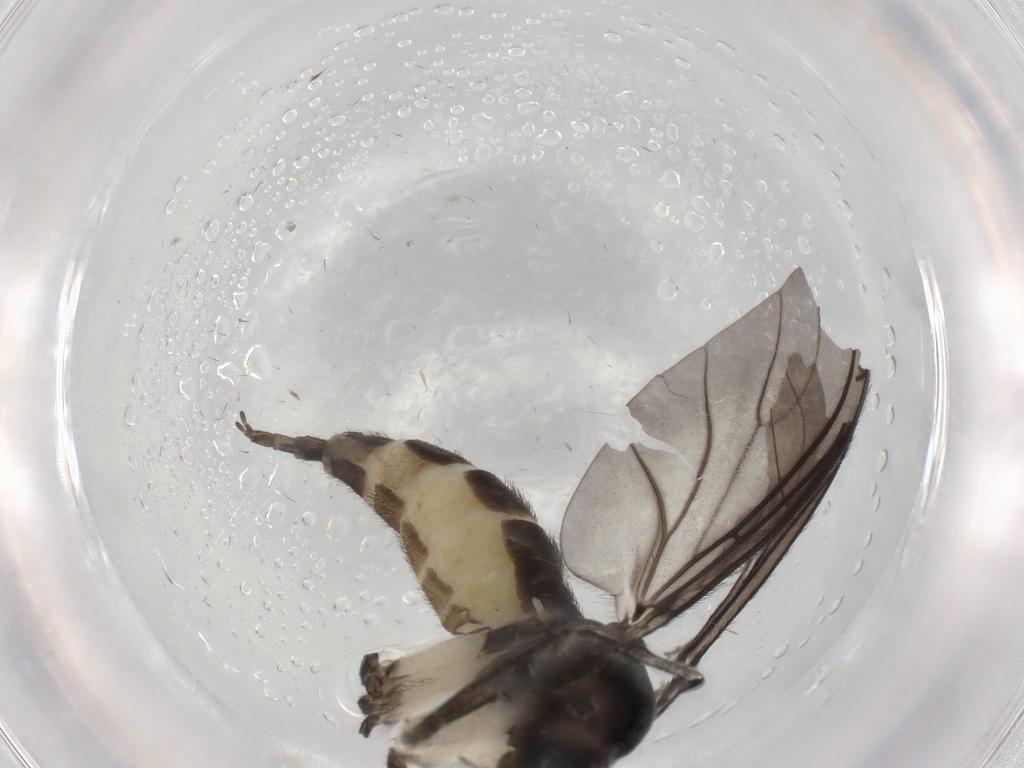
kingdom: Animalia
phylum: Arthropoda
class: Insecta
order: Diptera
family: Sciaridae
